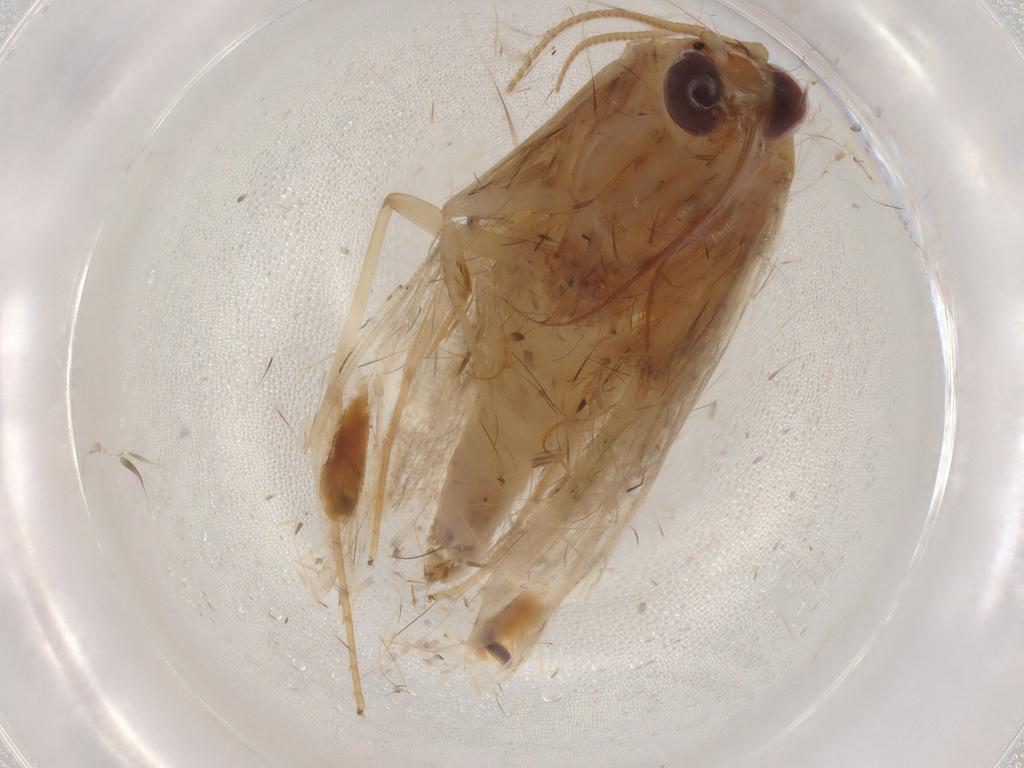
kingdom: Animalia
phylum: Arthropoda
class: Insecta
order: Lepidoptera
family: Crambidae
